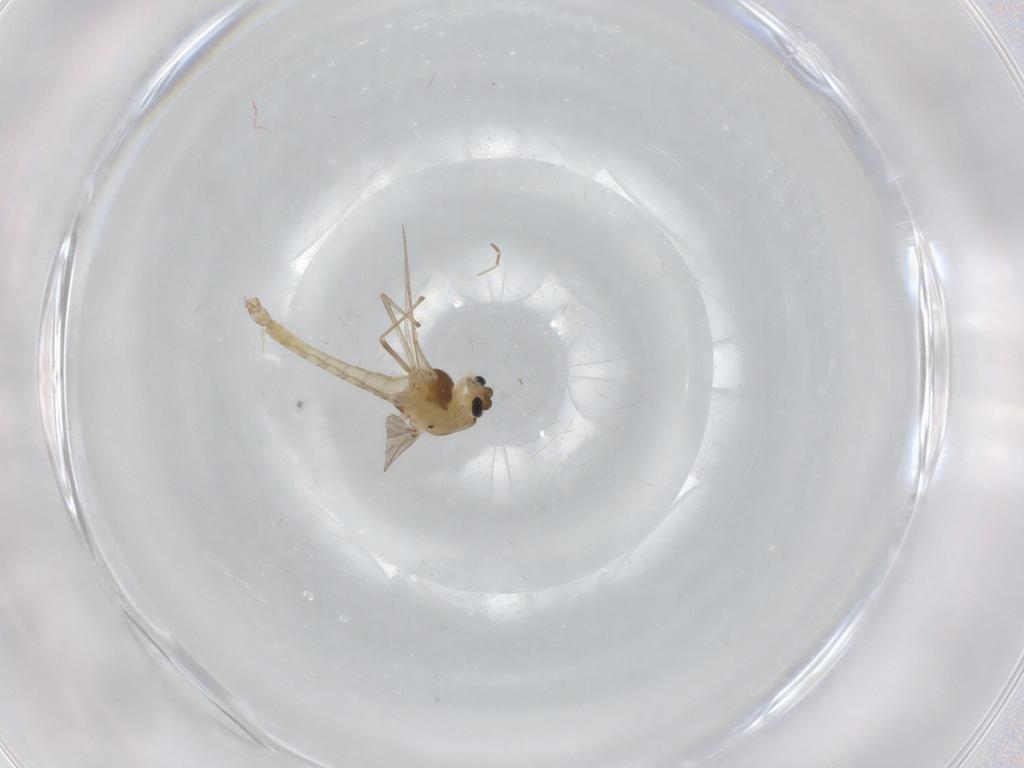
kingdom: Animalia
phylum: Arthropoda
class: Insecta
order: Diptera
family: Chironomidae
